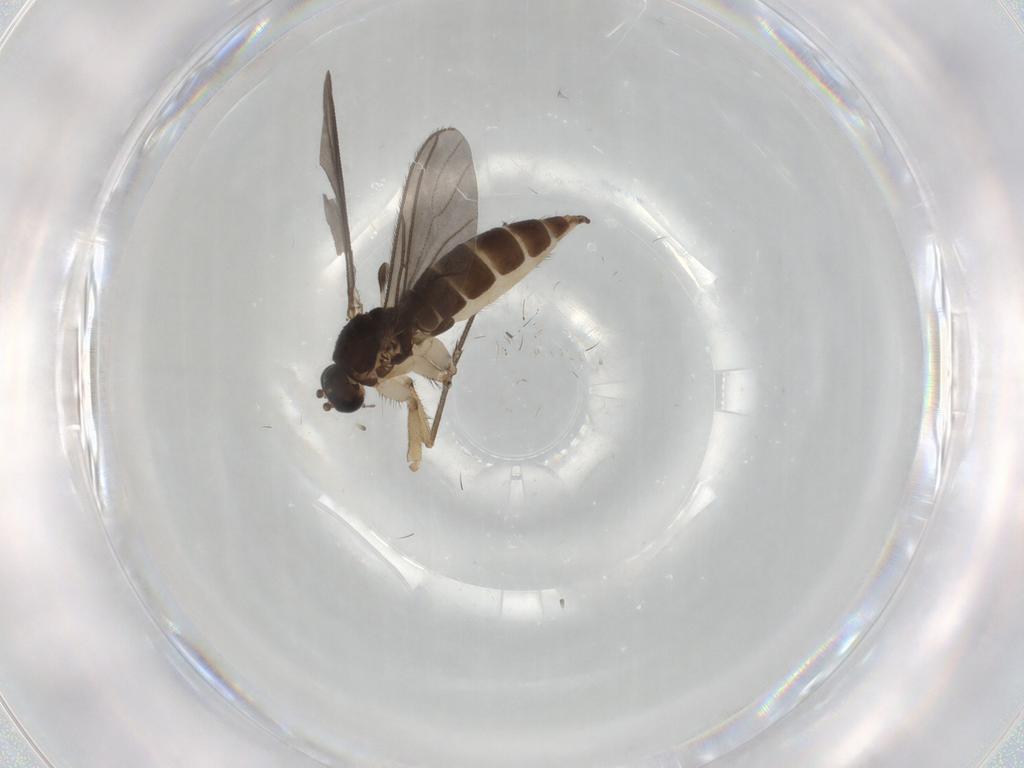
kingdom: Animalia
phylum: Arthropoda
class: Insecta
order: Diptera
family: Sciaridae
